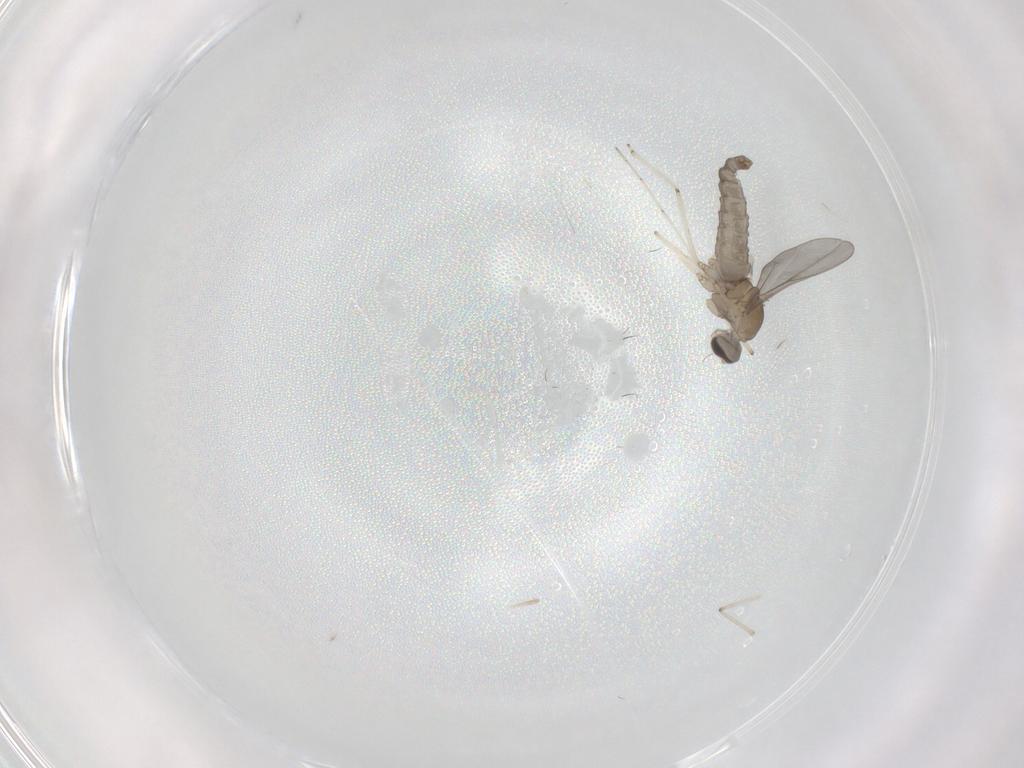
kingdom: Animalia
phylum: Arthropoda
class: Insecta
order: Diptera
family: Cecidomyiidae
